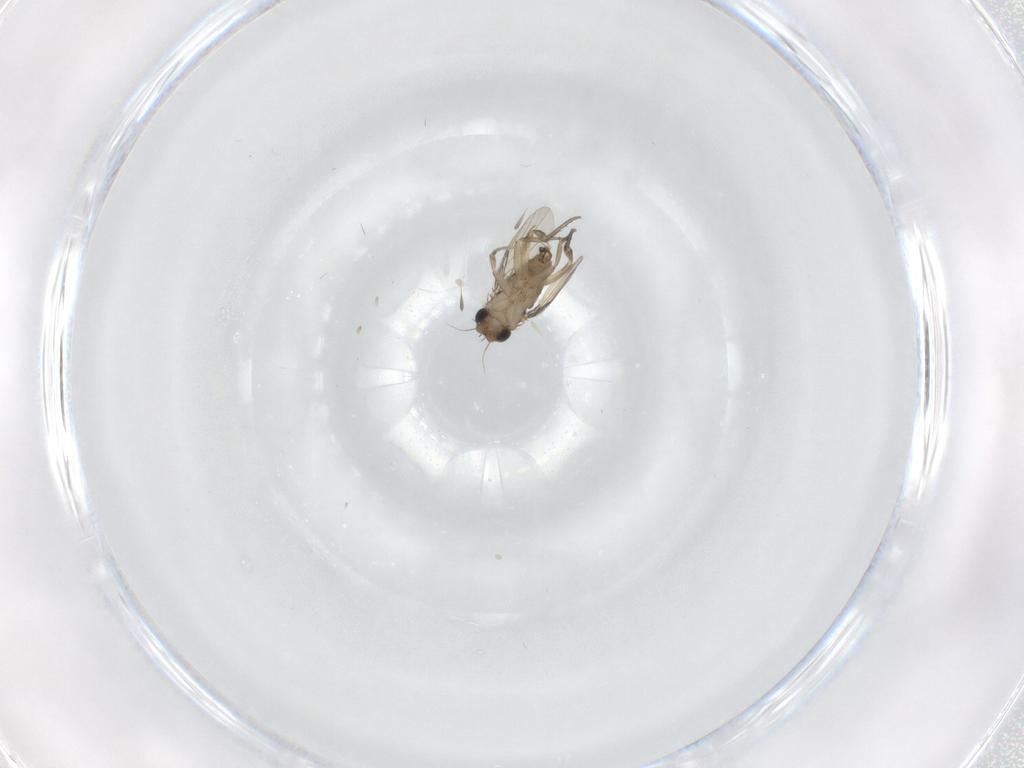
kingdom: Animalia
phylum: Arthropoda
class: Insecta
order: Diptera
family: Phoridae
